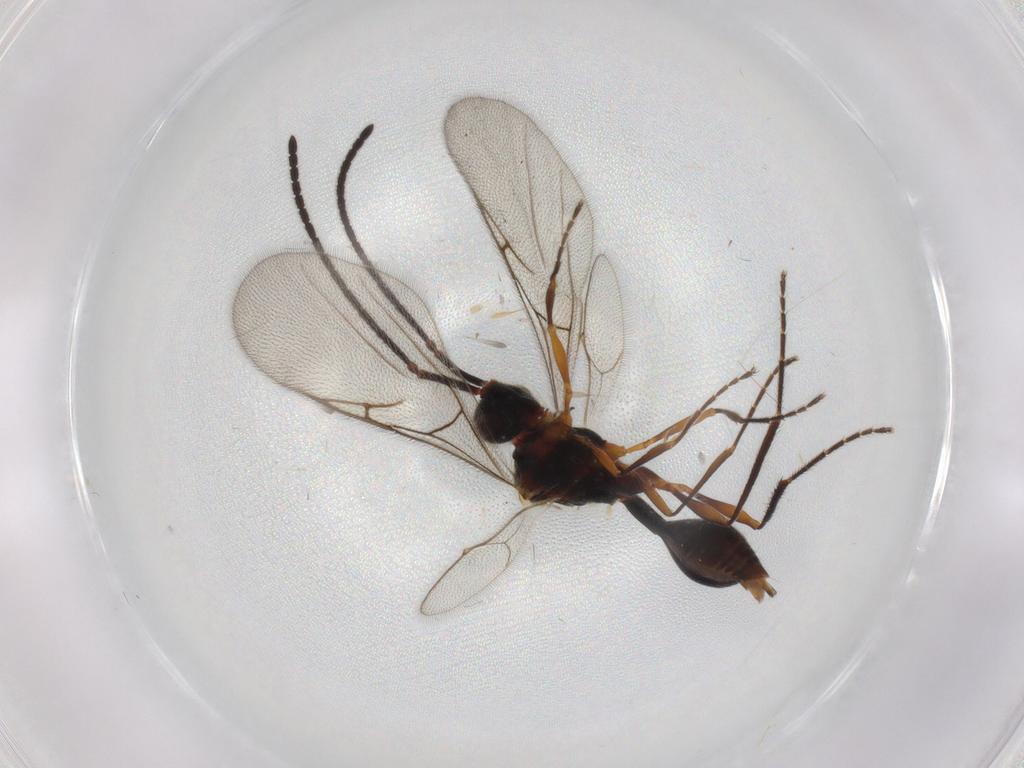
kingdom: Animalia
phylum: Arthropoda
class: Insecta
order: Hymenoptera
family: Diapriidae
